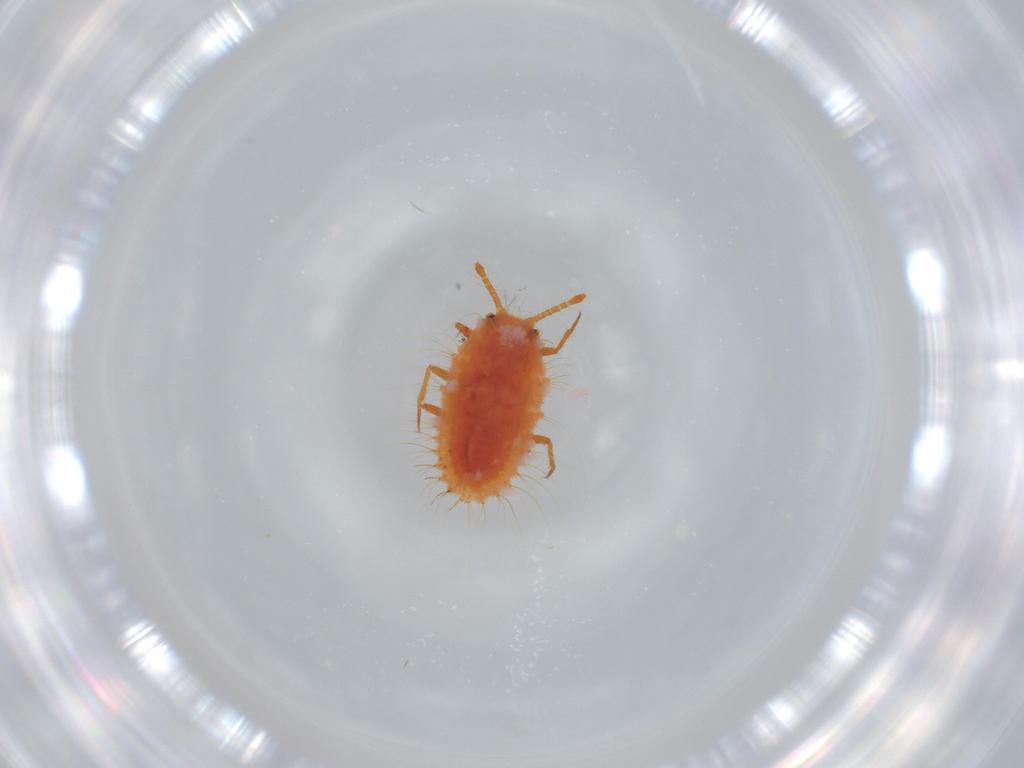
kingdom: Animalia
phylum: Arthropoda
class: Insecta
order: Hemiptera
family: Coccoidea_incertae_sedis
